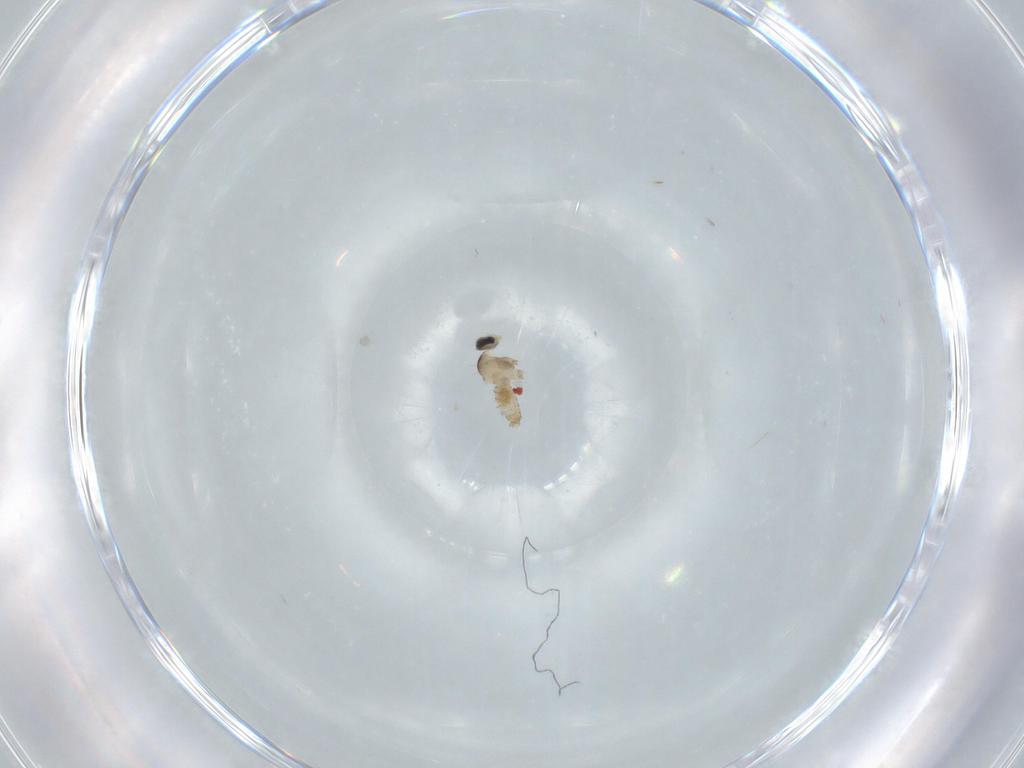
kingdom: Animalia
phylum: Arthropoda
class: Insecta
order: Diptera
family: Cecidomyiidae
